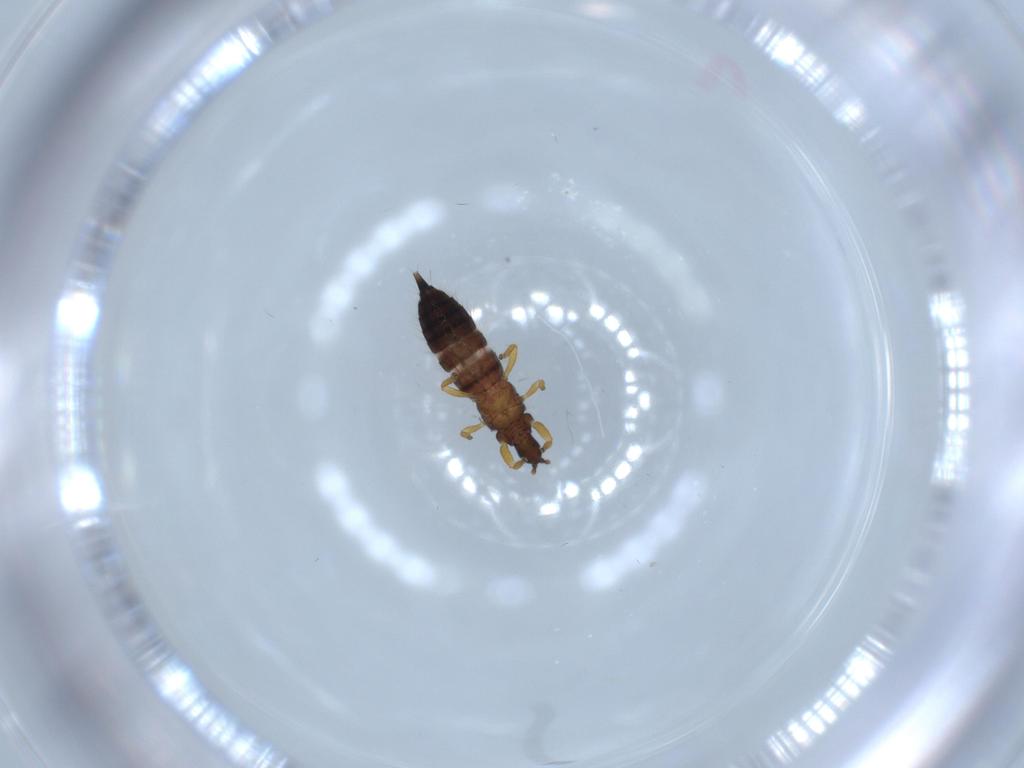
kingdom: Animalia
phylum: Arthropoda
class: Insecta
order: Thysanoptera
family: Phlaeothripidae
